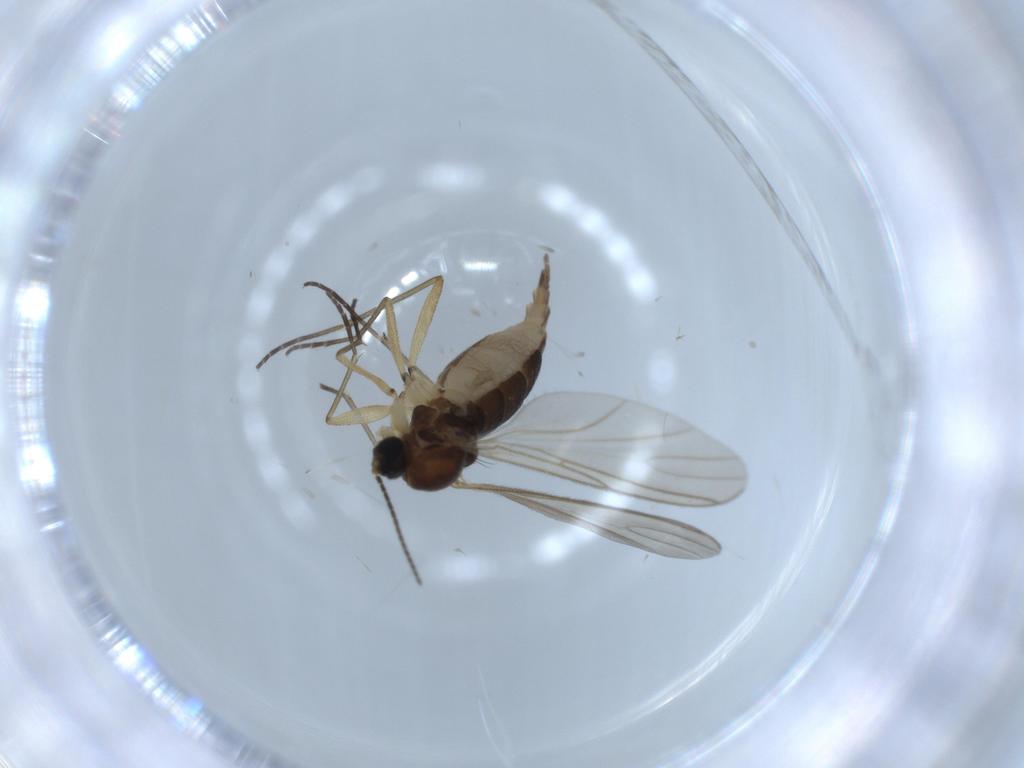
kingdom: Animalia
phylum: Arthropoda
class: Insecta
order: Diptera
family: Sciaridae
